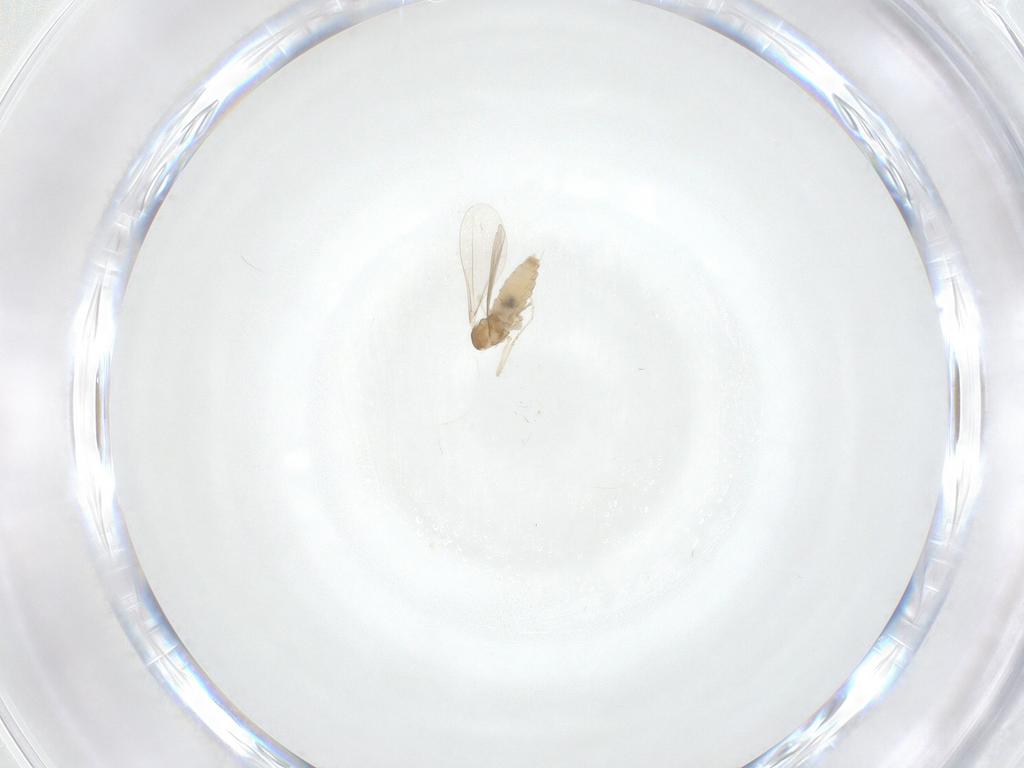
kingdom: Animalia
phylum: Arthropoda
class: Insecta
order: Diptera
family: Cecidomyiidae
